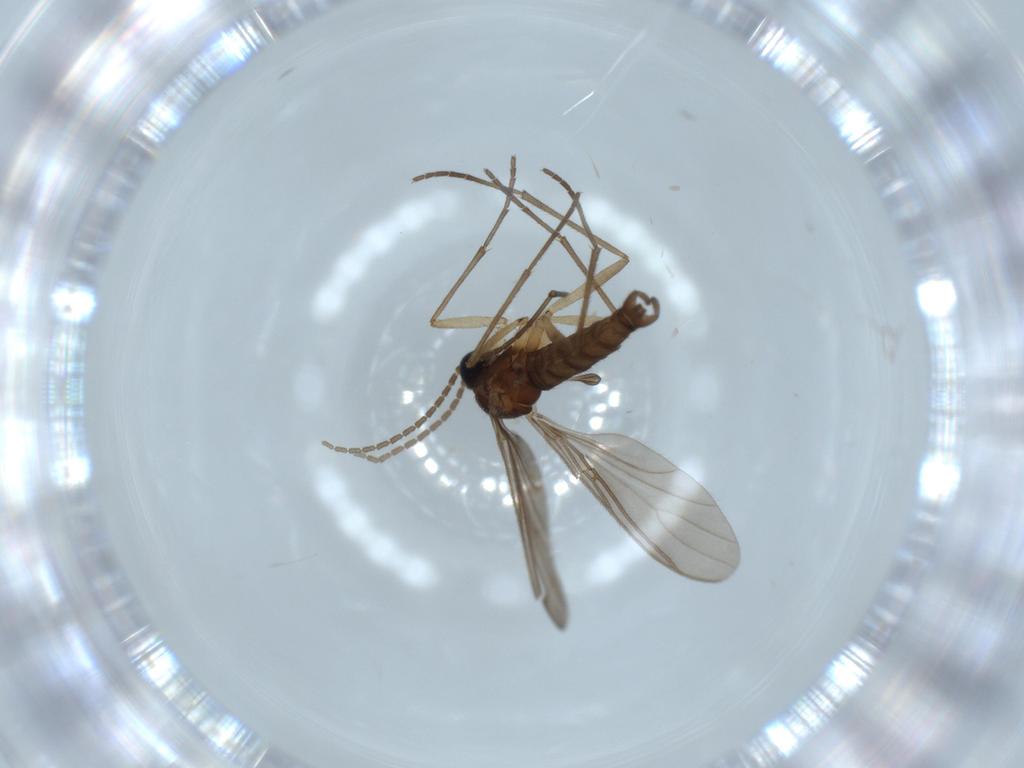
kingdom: Animalia
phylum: Arthropoda
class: Insecta
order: Diptera
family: Sciaridae
